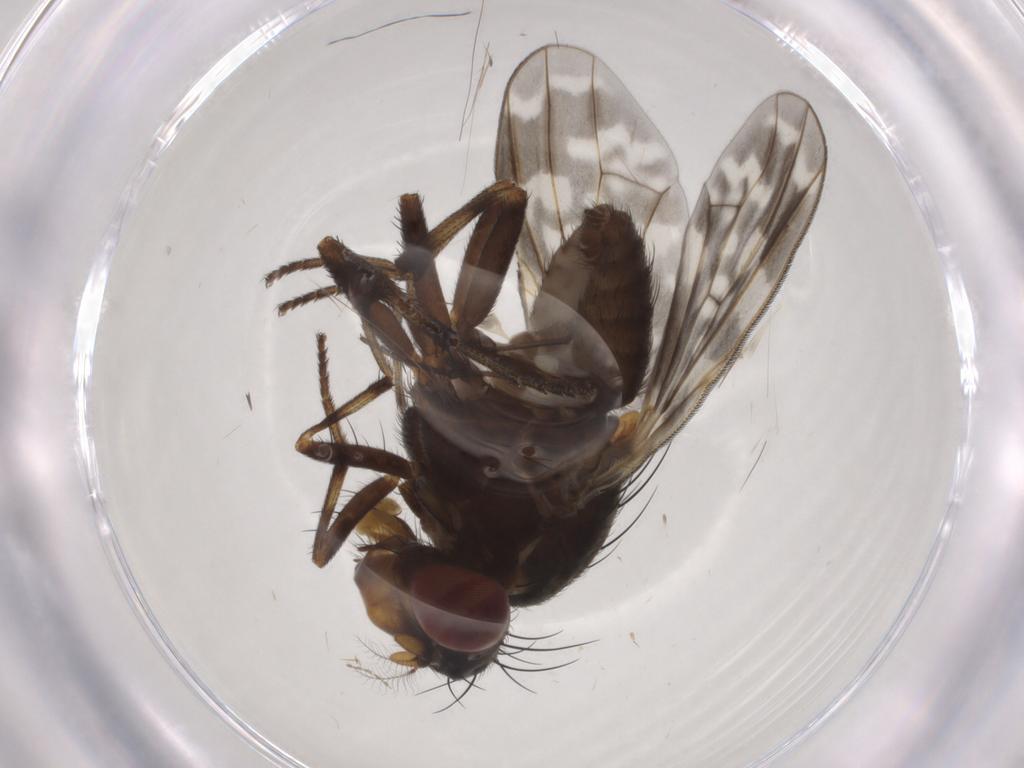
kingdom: Animalia
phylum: Arthropoda
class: Insecta
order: Diptera
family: Lauxaniidae
